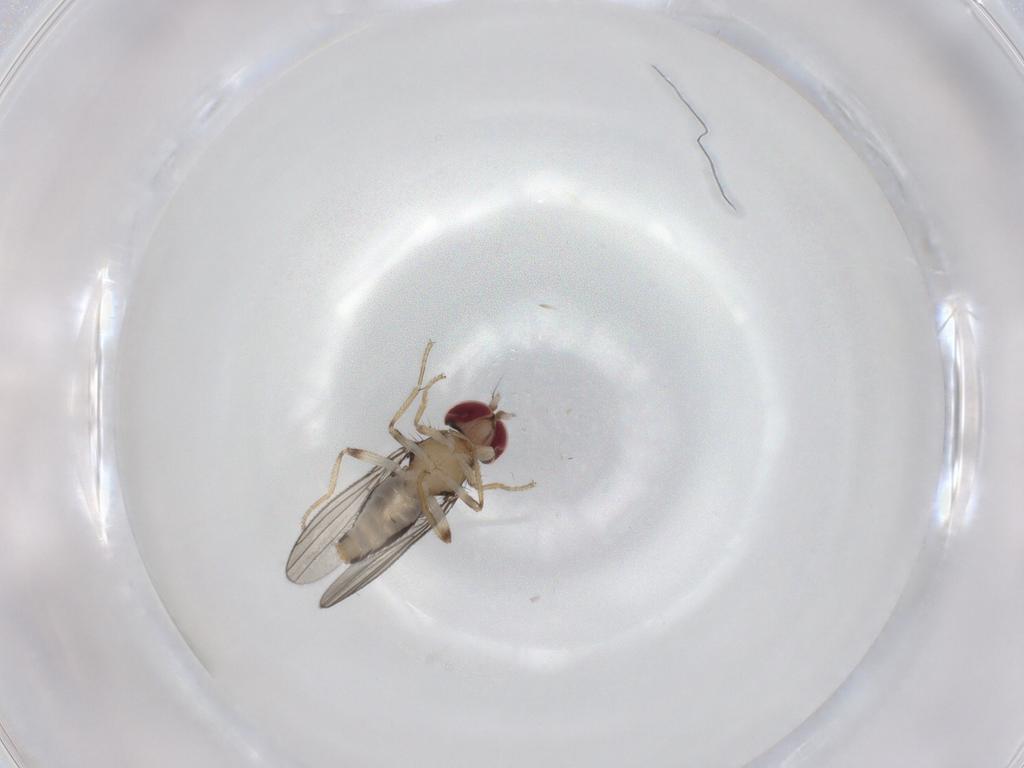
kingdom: Animalia
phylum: Arthropoda
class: Insecta
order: Diptera
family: Anthomyzidae
